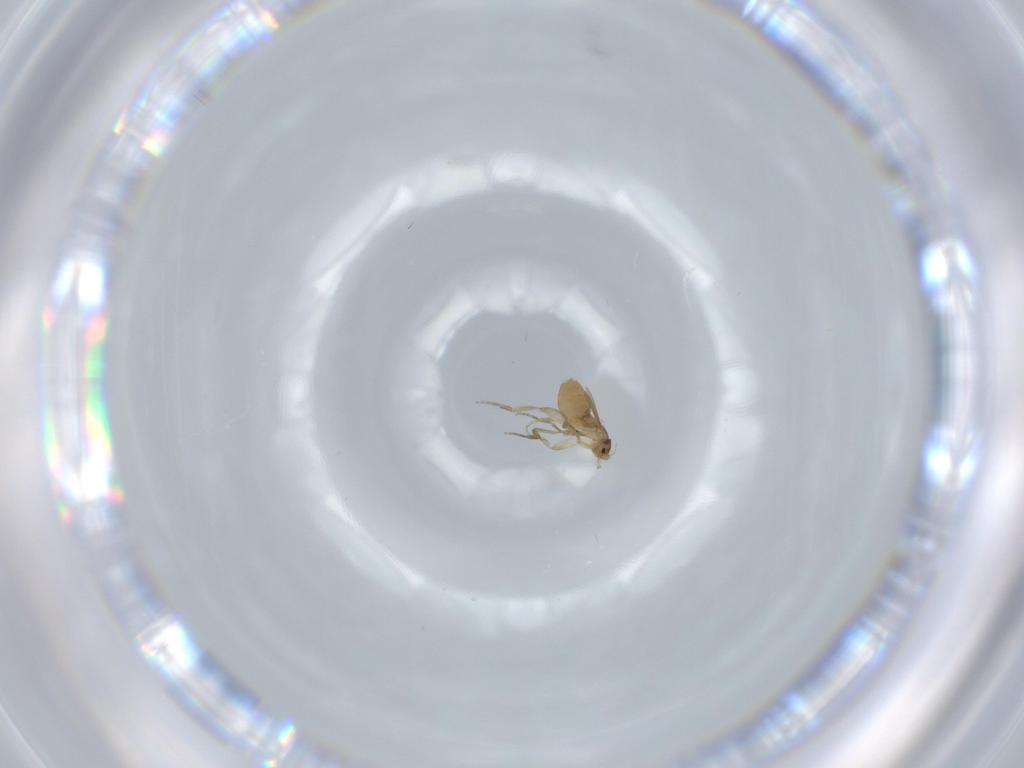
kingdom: Animalia
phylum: Arthropoda
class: Insecta
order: Diptera
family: Phoridae
